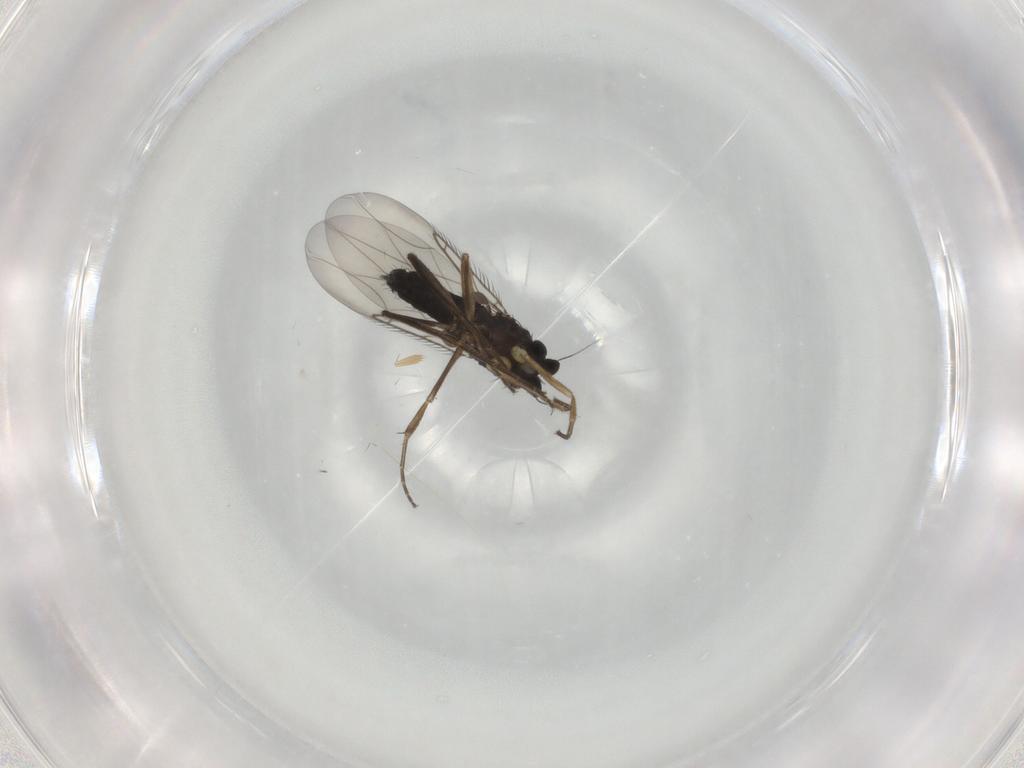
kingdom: Animalia
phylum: Arthropoda
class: Insecta
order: Diptera
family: Phoridae
